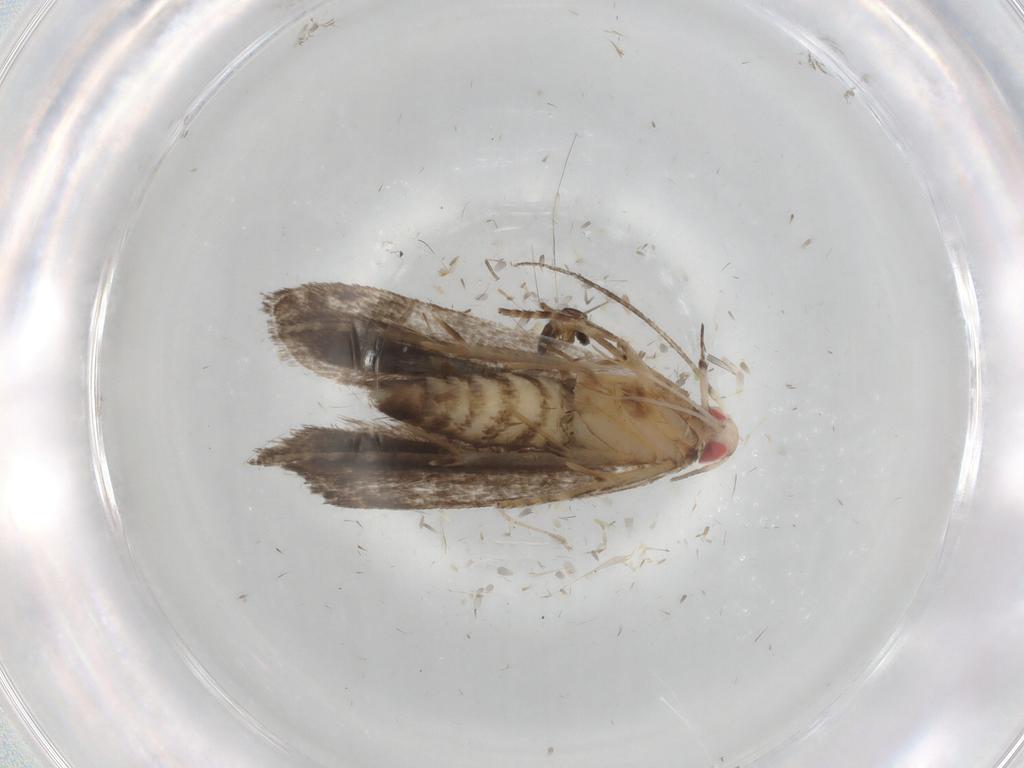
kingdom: Animalia
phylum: Arthropoda
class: Insecta
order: Lepidoptera
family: Gelechiidae
